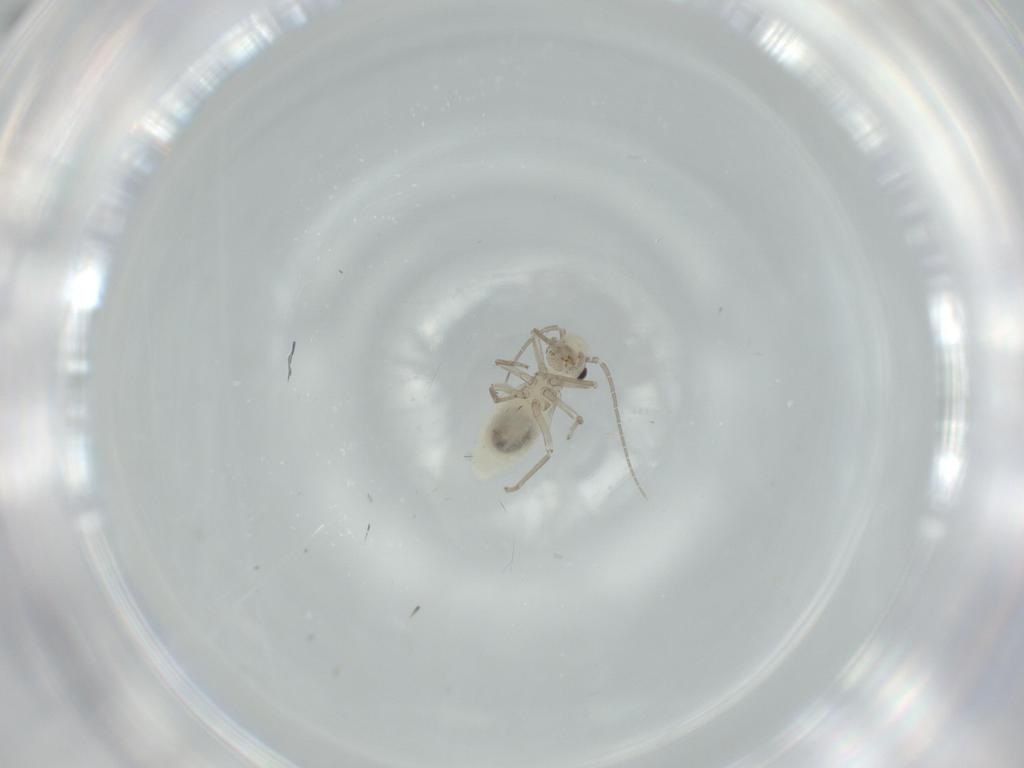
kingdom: Animalia
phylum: Arthropoda
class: Insecta
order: Psocodea
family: Caeciliusidae
